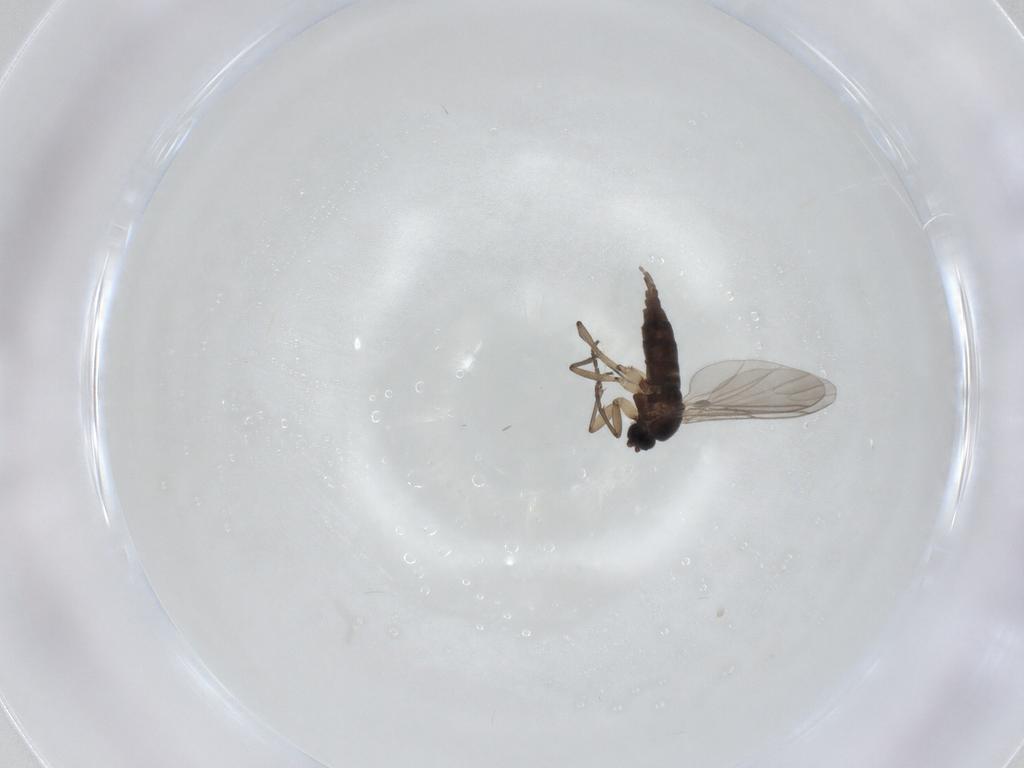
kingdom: Animalia
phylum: Arthropoda
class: Insecta
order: Diptera
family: Sciaridae
